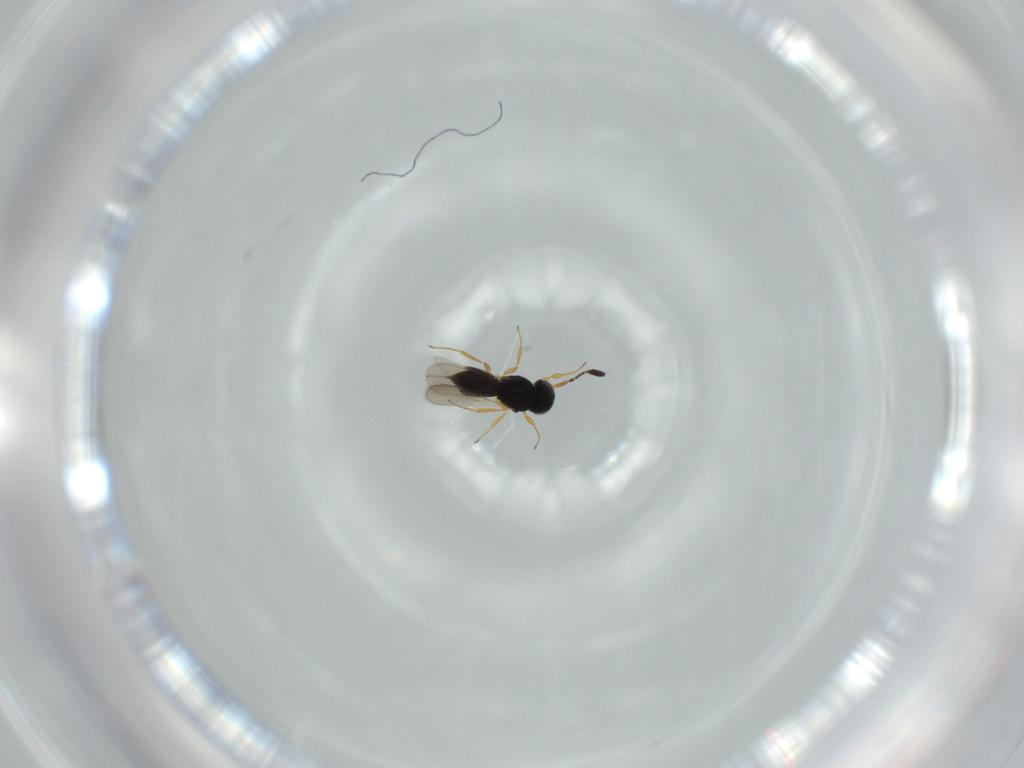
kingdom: Animalia
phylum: Arthropoda
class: Insecta
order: Hymenoptera
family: Scelionidae
